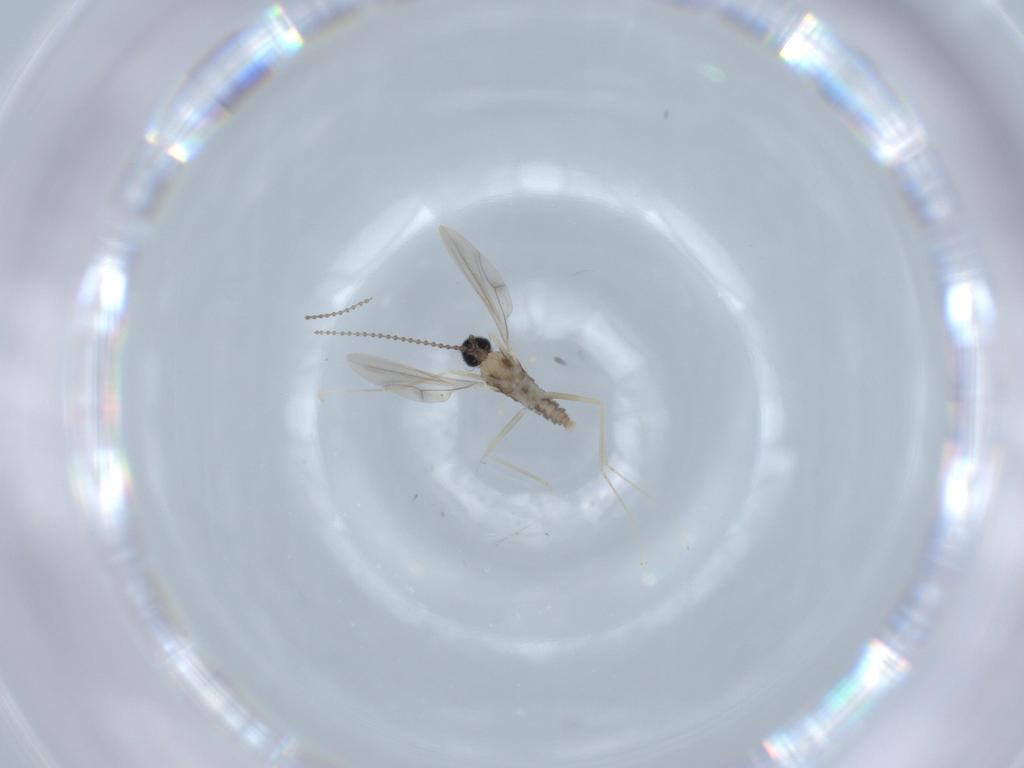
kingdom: Animalia
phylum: Arthropoda
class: Insecta
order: Diptera
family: Cecidomyiidae
